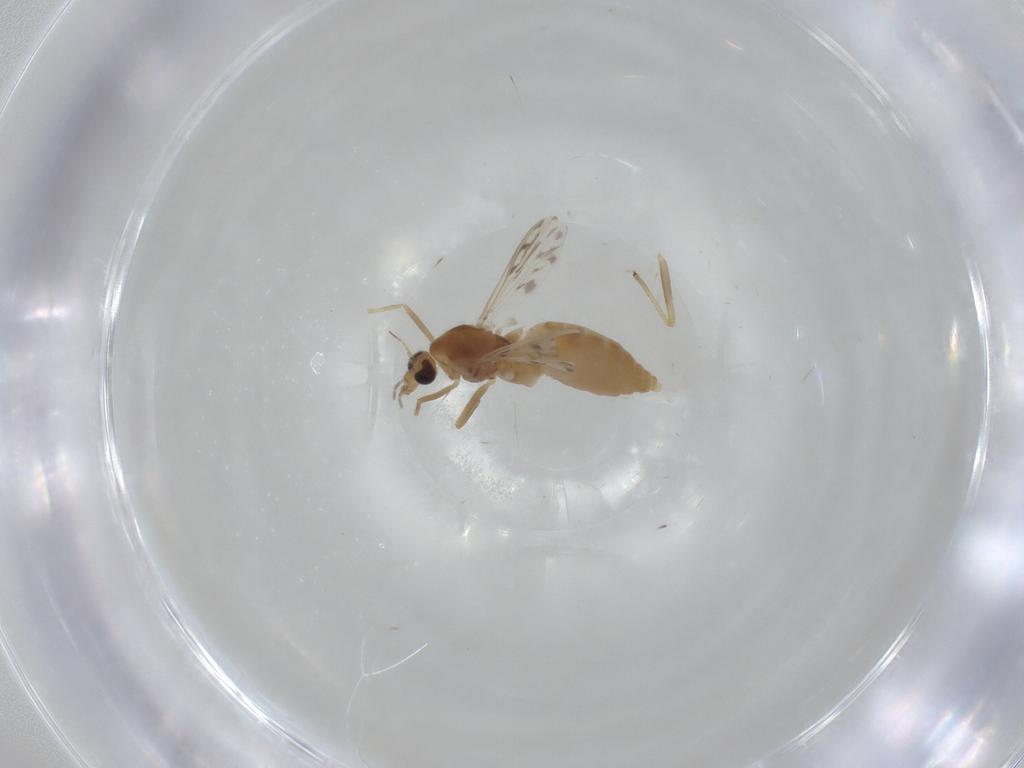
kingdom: Animalia
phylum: Arthropoda
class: Insecta
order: Diptera
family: Chironomidae
